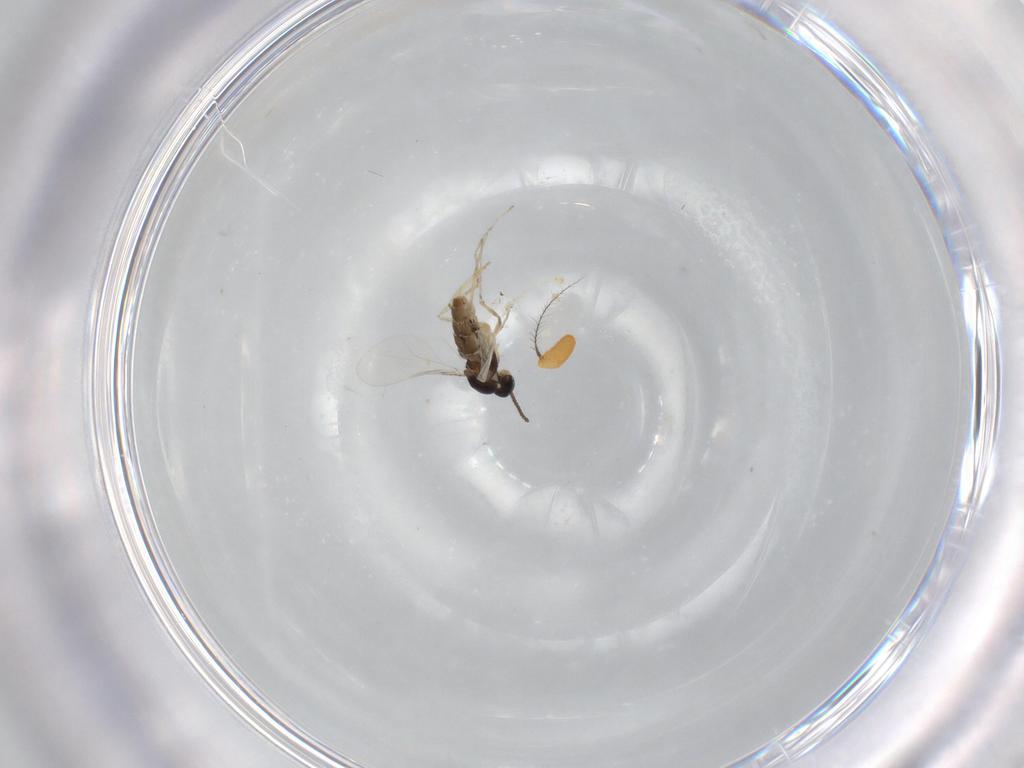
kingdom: Animalia
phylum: Arthropoda
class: Insecta
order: Diptera
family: Cecidomyiidae
